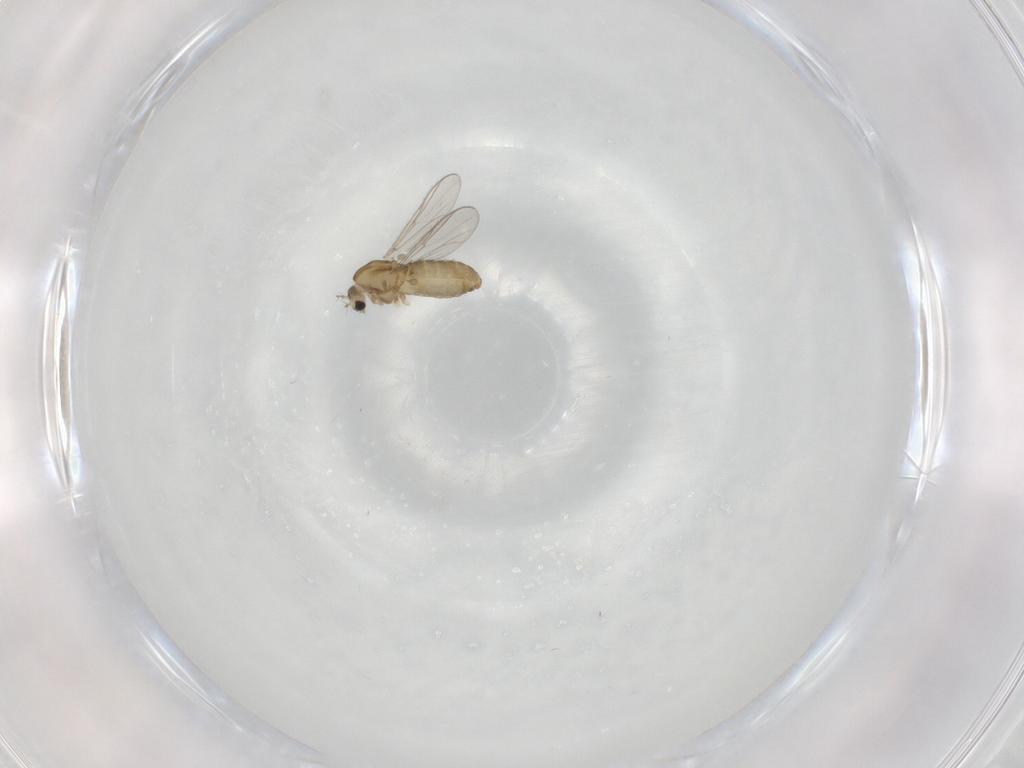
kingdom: Animalia
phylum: Arthropoda
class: Insecta
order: Diptera
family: Chironomidae
